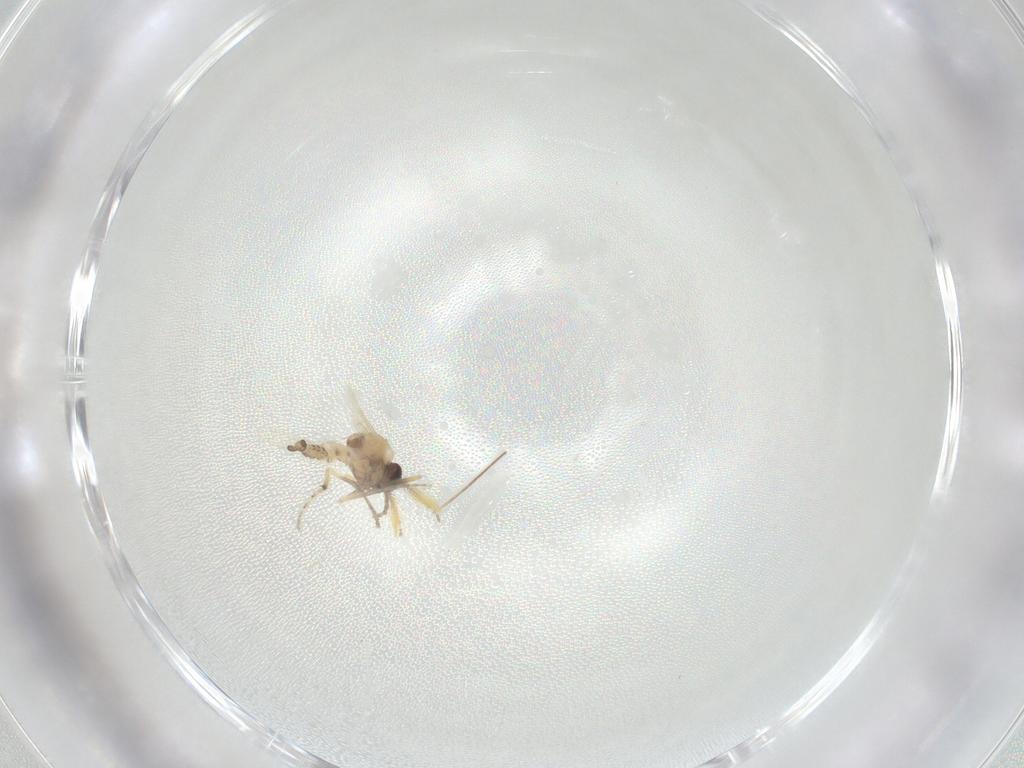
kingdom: Animalia
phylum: Arthropoda
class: Insecta
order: Diptera
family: Ceratopogonidae
